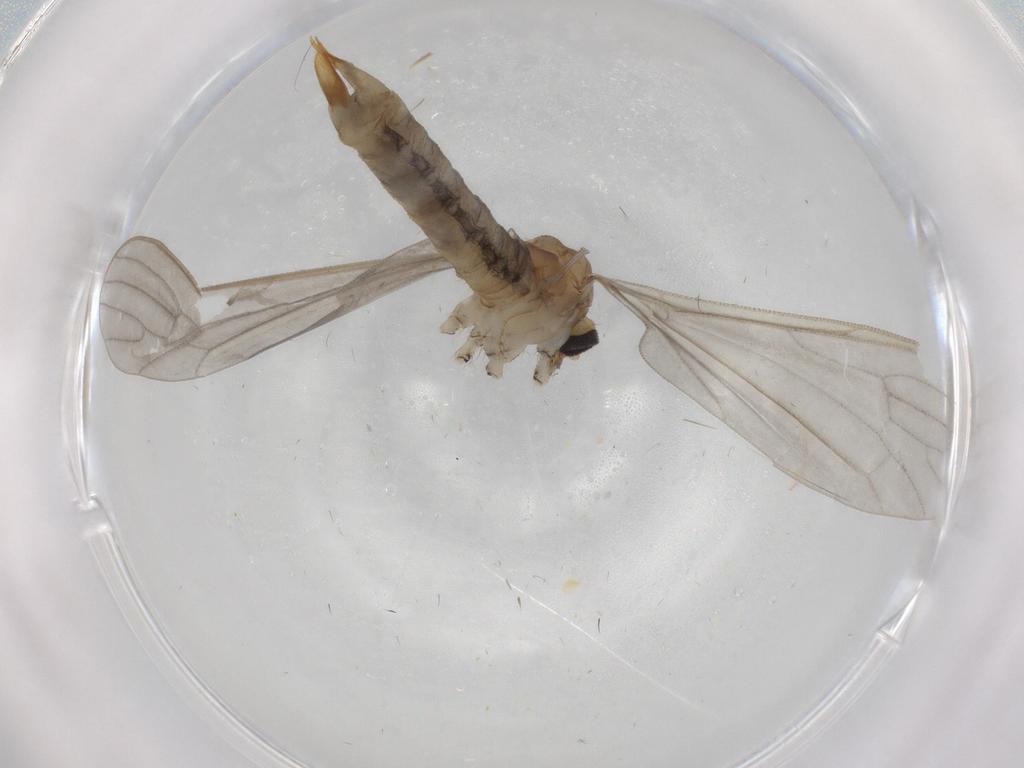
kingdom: Animalia
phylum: Arthropoda
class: Insecta
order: Diptera
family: Limoniidae
